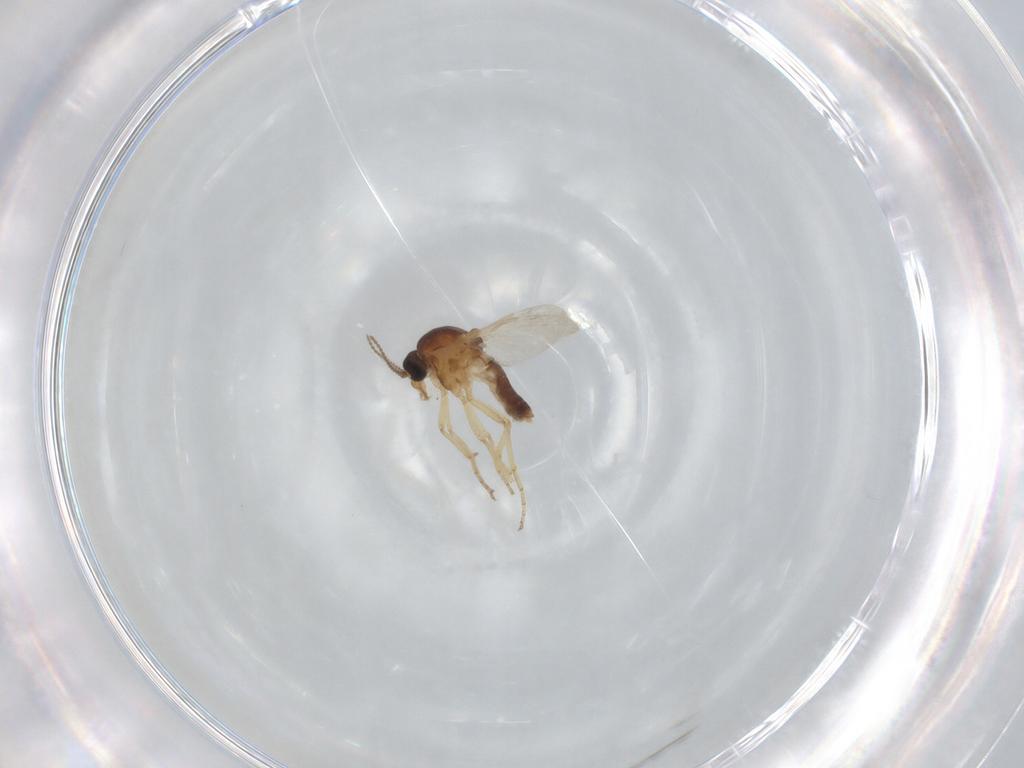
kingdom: Animalia
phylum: Arthropoda
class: Insecta
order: Diptera
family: Ceratopogonidae
